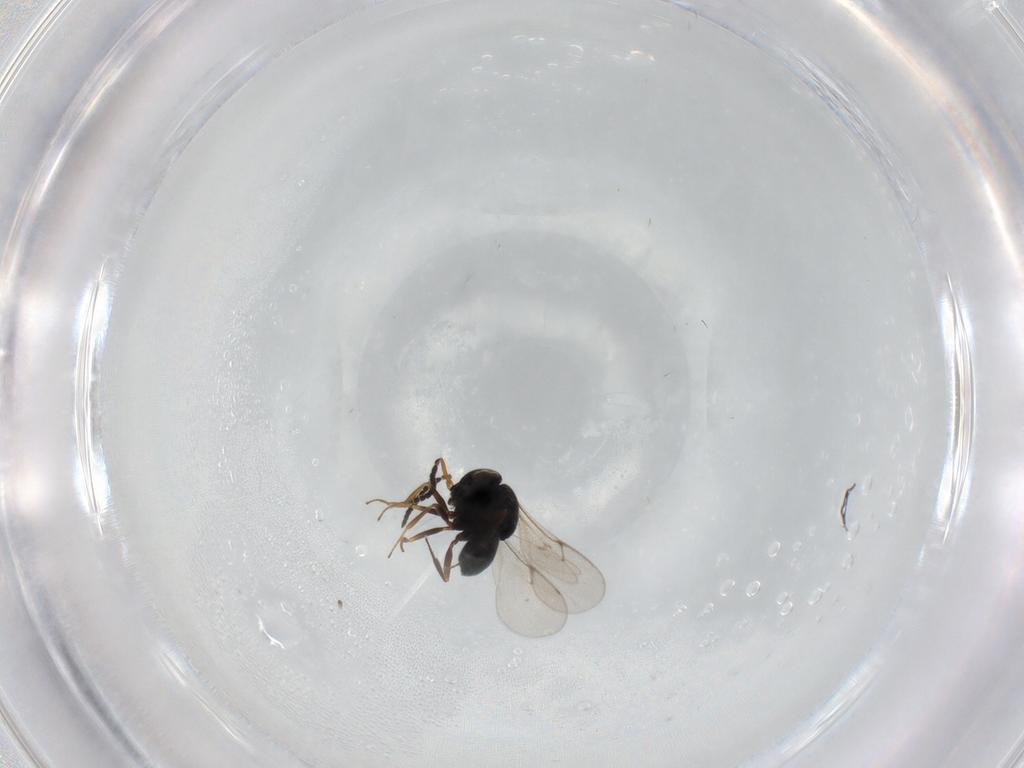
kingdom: Animalia
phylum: Arthropoda
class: Insecta
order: Hymenoptera
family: Scelionidae
